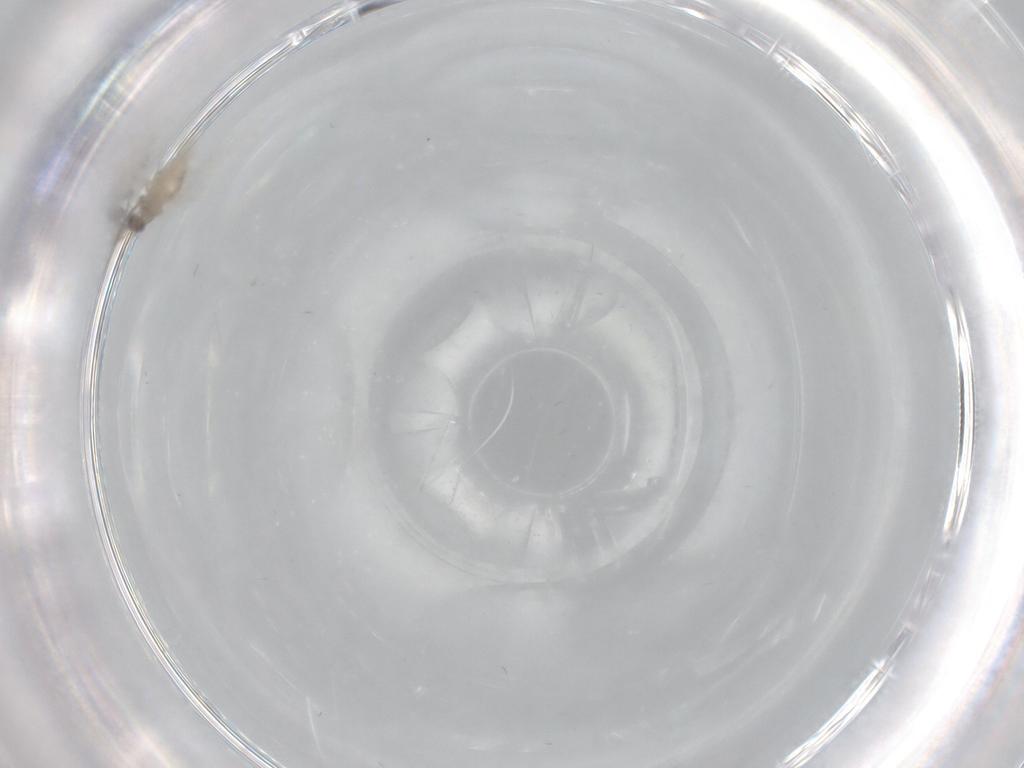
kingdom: Animalia
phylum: Arthropoda
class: Insecta
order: Diptera
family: Cecidomyiidae
